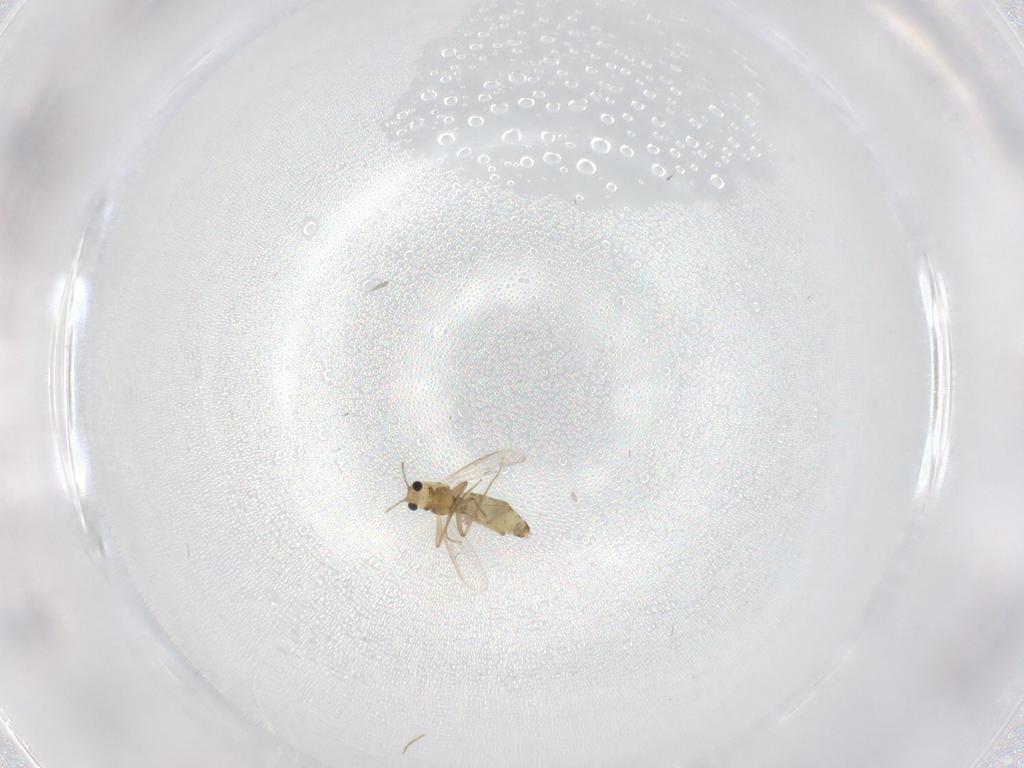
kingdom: Animalia
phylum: Arthropoda
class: Insecta
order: Diptera
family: Chironomidae
